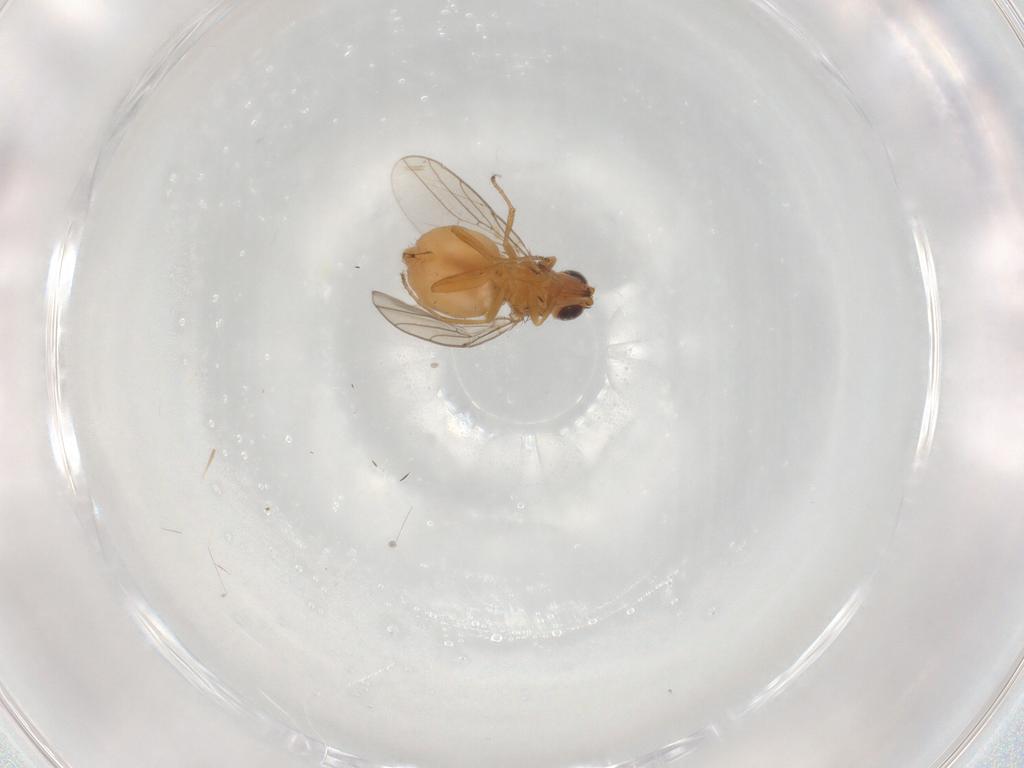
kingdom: Animalia
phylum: Arthropoda
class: Insecta
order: Diptera
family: Chloropidae
